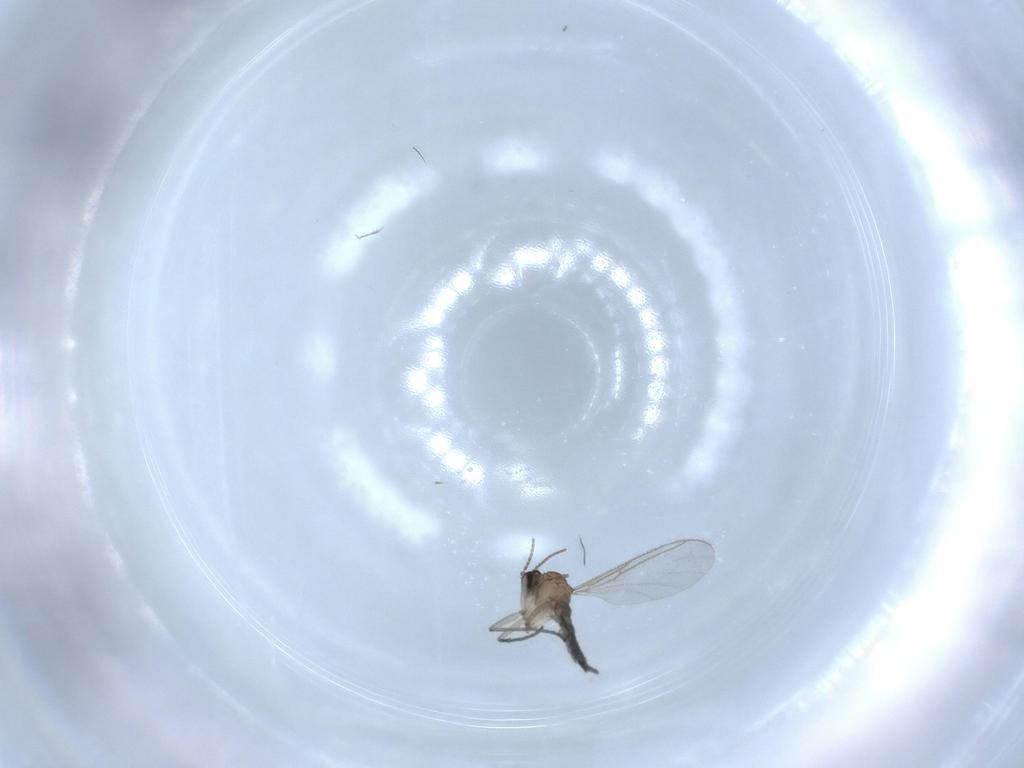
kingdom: Animalia
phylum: Arthropoda
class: Insecta
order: Diptera
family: Sciaridae
